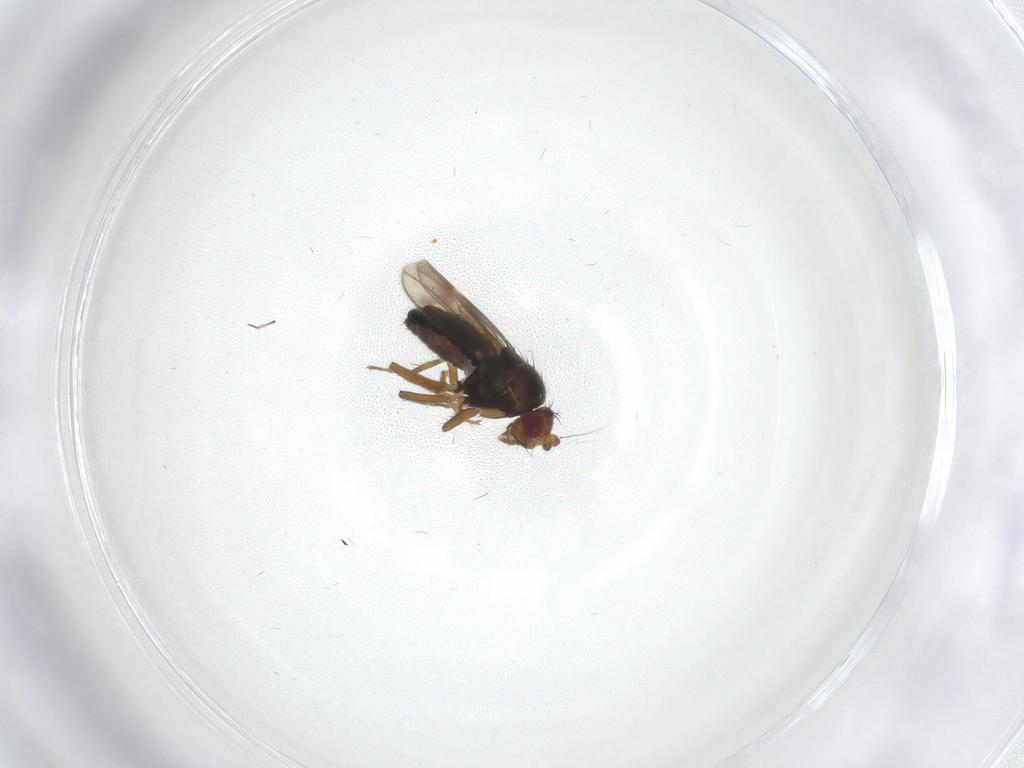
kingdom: Animalia
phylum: Arthropoda
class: Insecta
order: Diptera
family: Sphaeroceridae
